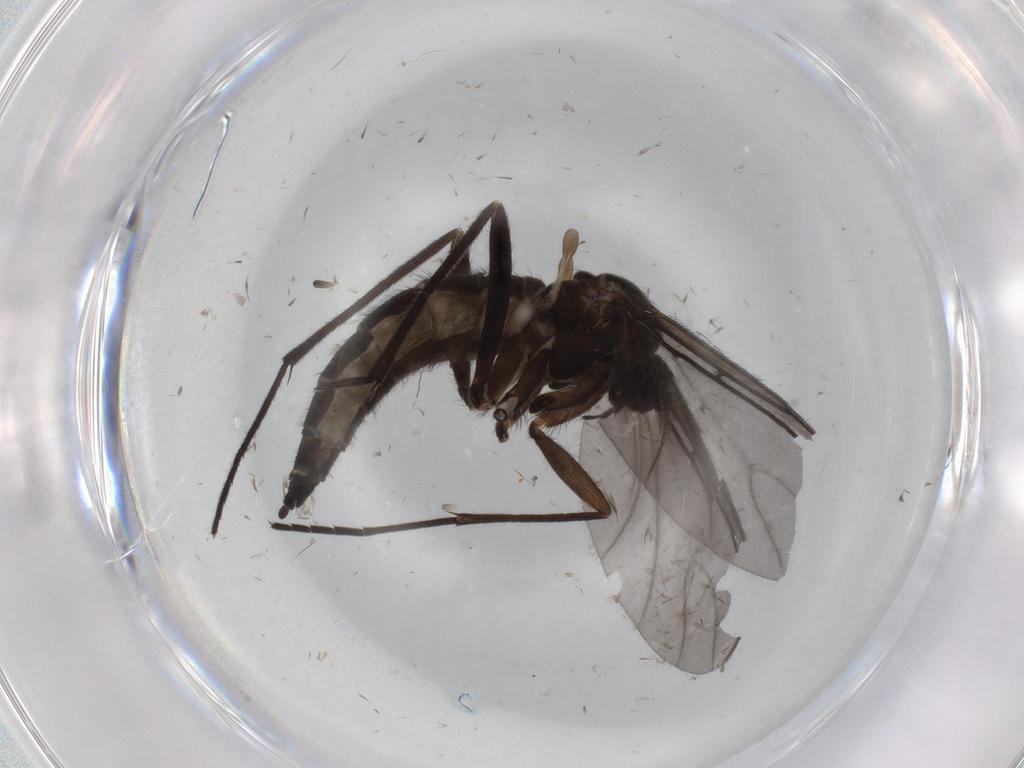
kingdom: Animalia
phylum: Arthropoda
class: Insecta
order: Diptera
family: Sciaridae
